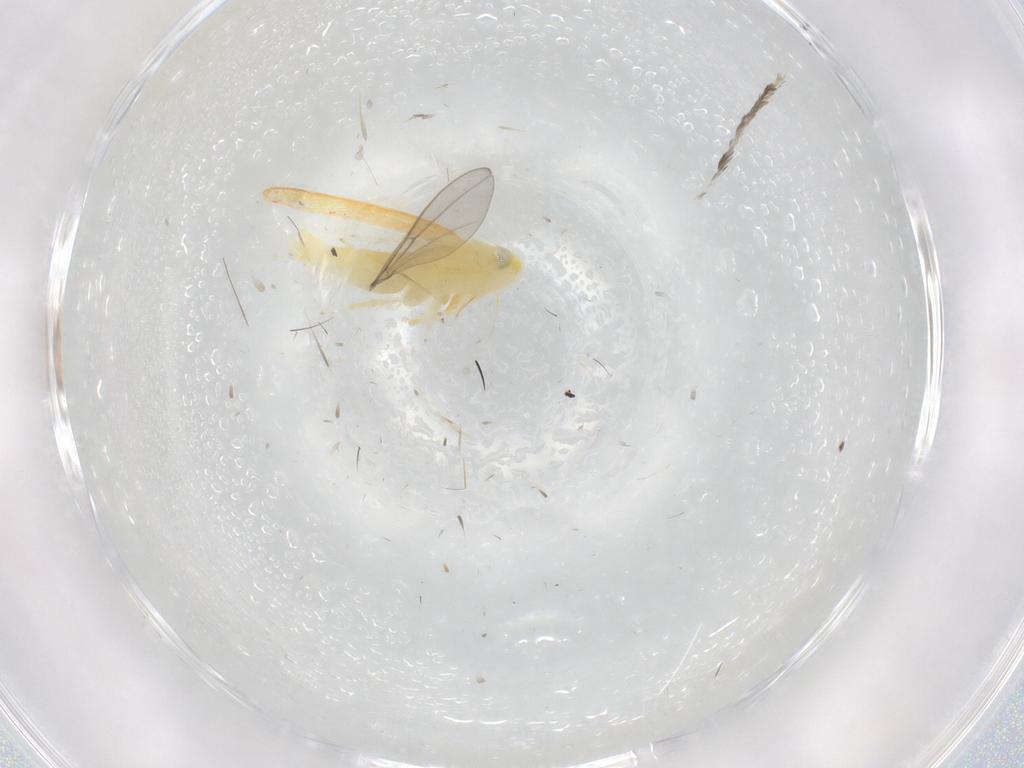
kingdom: Animalia
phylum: Arthropoda
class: Insecta
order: Hemiptera
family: Cicadellidae
